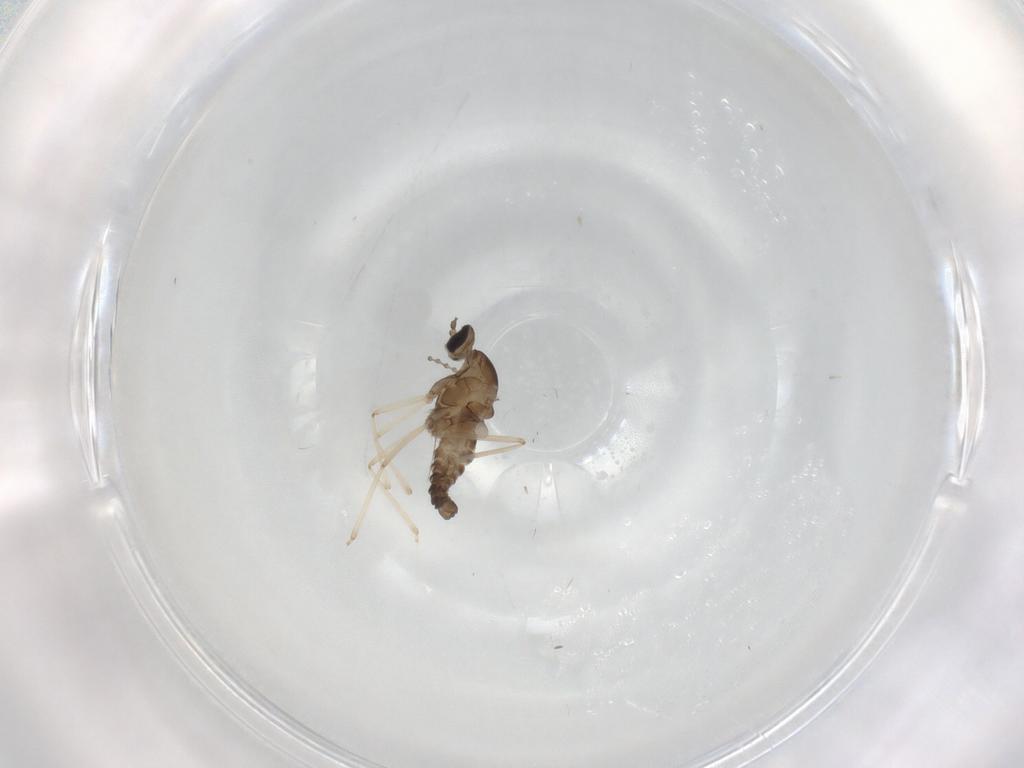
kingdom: Animalia
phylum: Arthropoda
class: Insecta
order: Diptera
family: Cecidomyiidae
